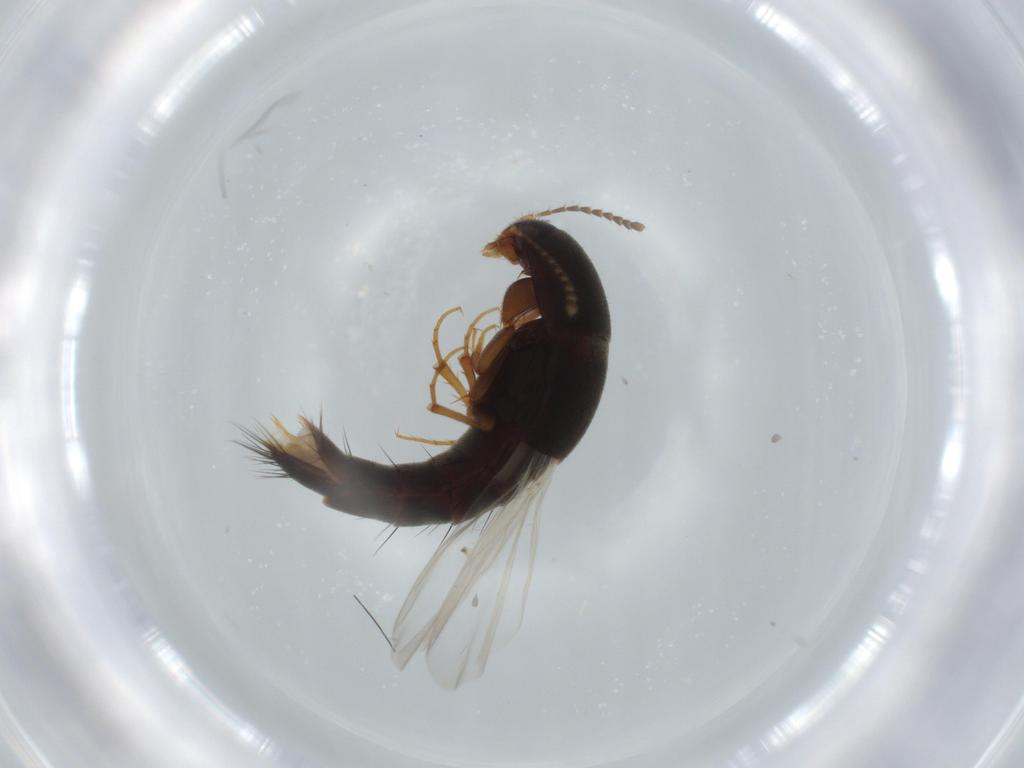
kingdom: Animalia
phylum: Arthropoda
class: Insecta
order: Coleoptera
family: Staphylinidae
